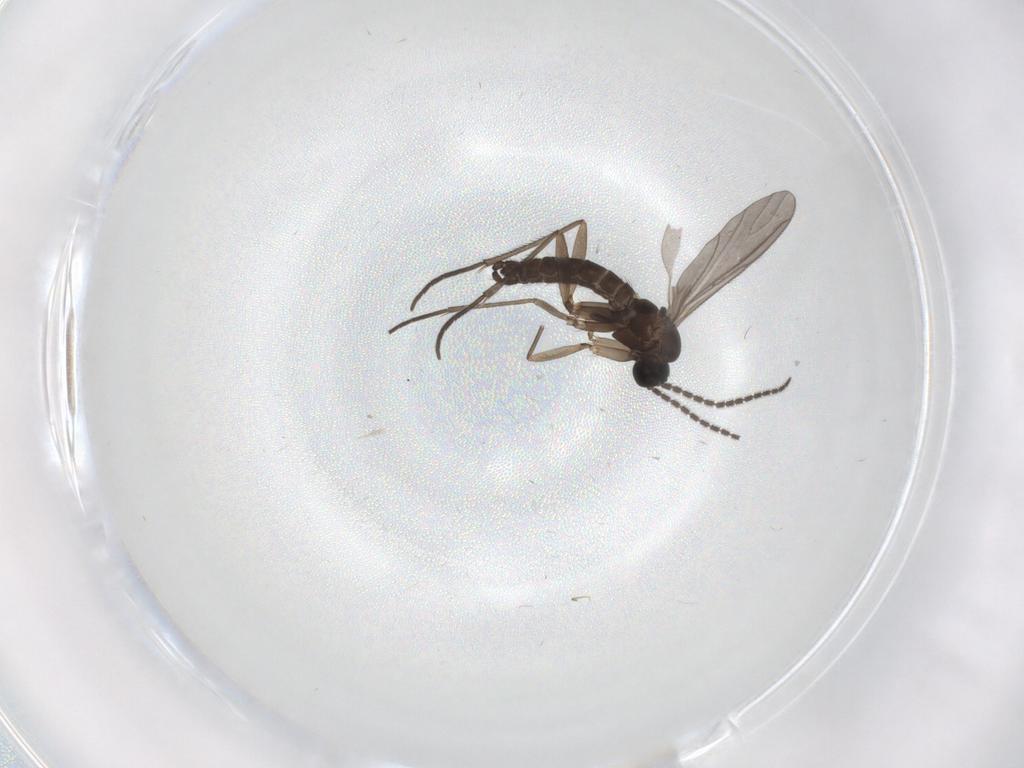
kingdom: Animalia
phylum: Arthropoda
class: Insecta
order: Diptera
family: Sciaridae
